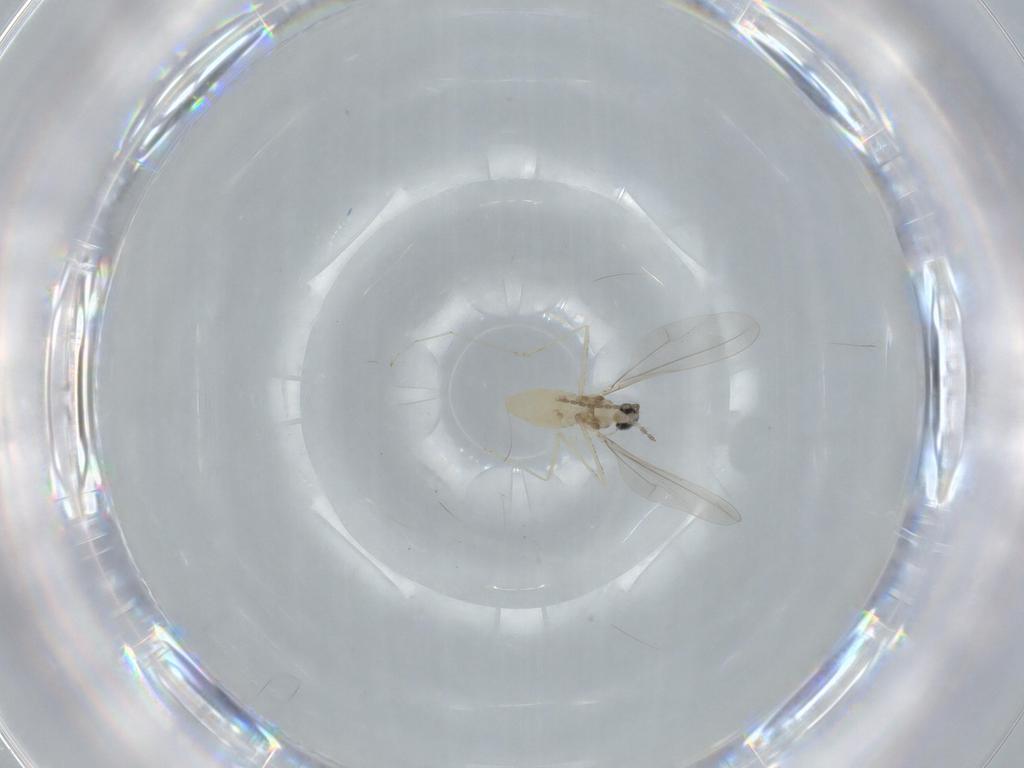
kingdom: Animalia
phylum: Arthropoda
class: Insecta
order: Diptera
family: Cecidomyiidae
